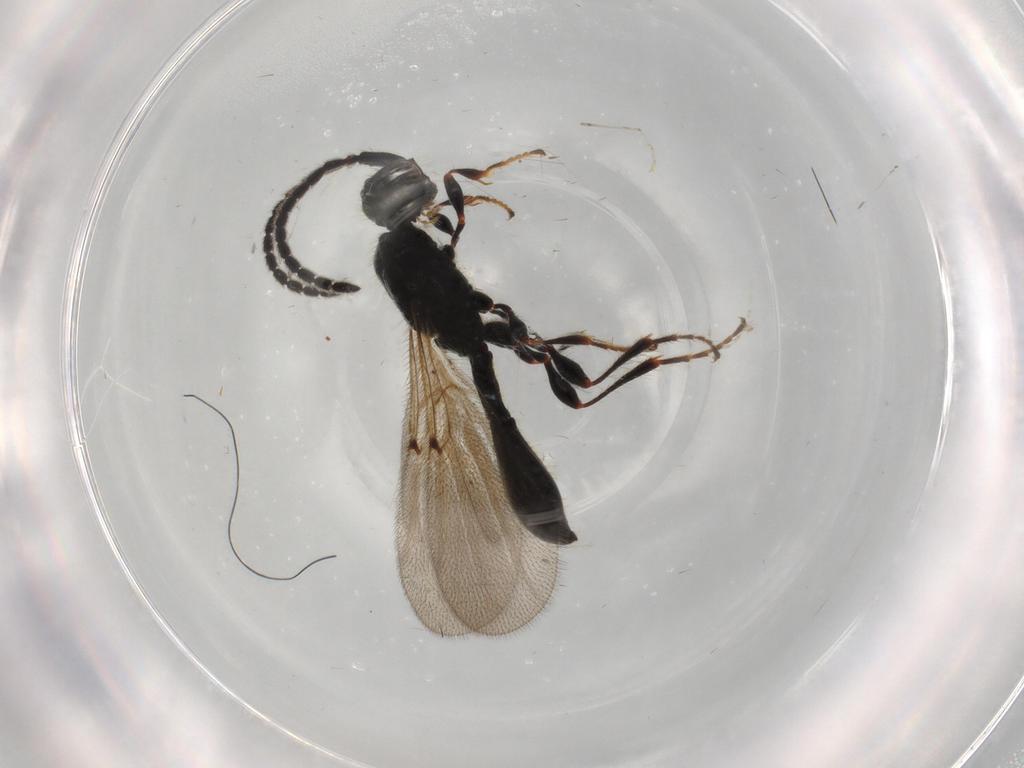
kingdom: Animalia
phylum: Arthropoda
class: Insecta
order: Hymenoptera
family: Diapriidae
